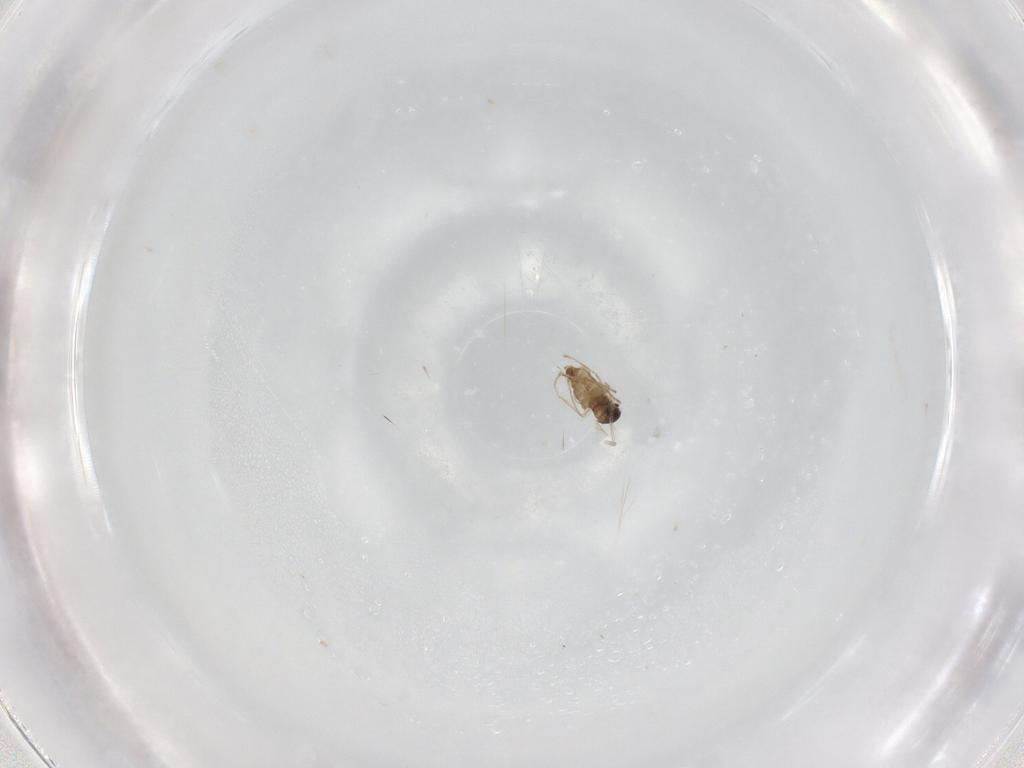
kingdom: Animalia
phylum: Arthropoda
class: Insecta
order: Diptera
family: Cecidomyiidae
